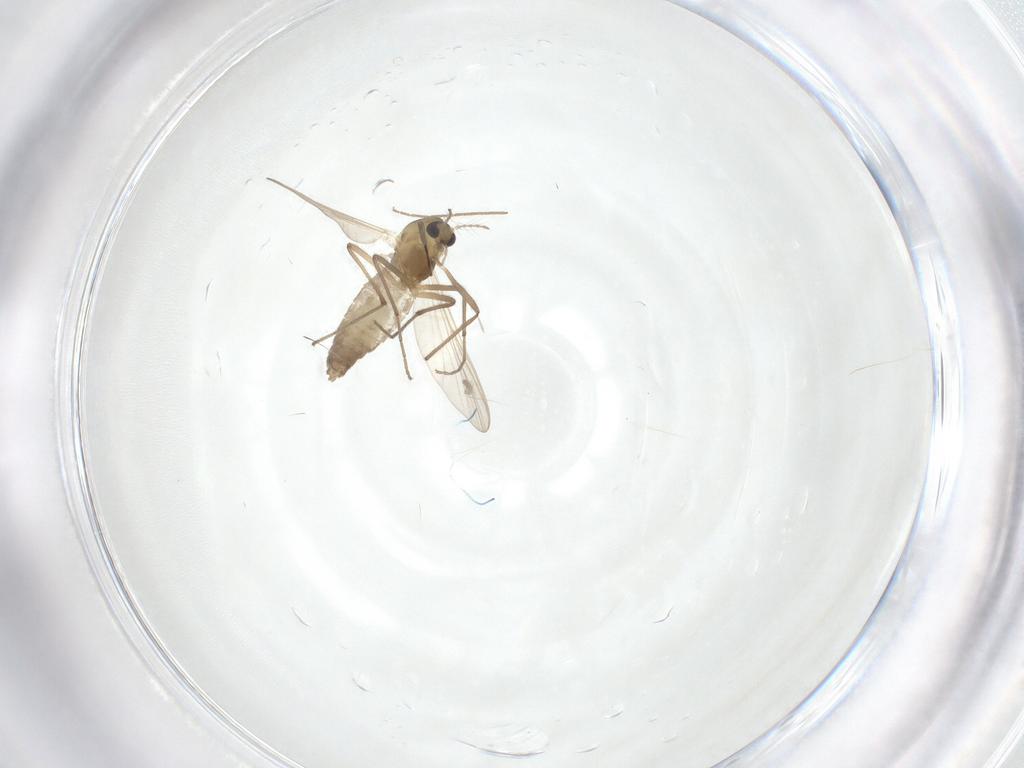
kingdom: Animalia
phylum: Arthropoda
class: Insecta
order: Diptera
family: Chironomidae
